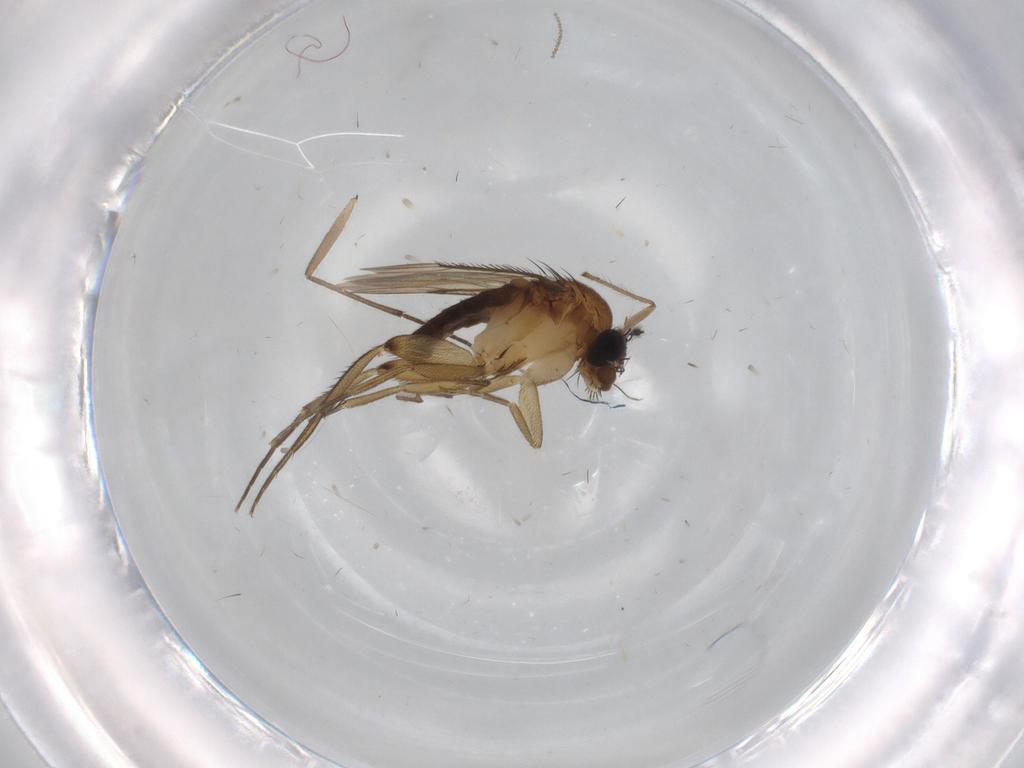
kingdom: Animalia
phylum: Arthropoda
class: Insecta
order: Diptera
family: Phoridae
